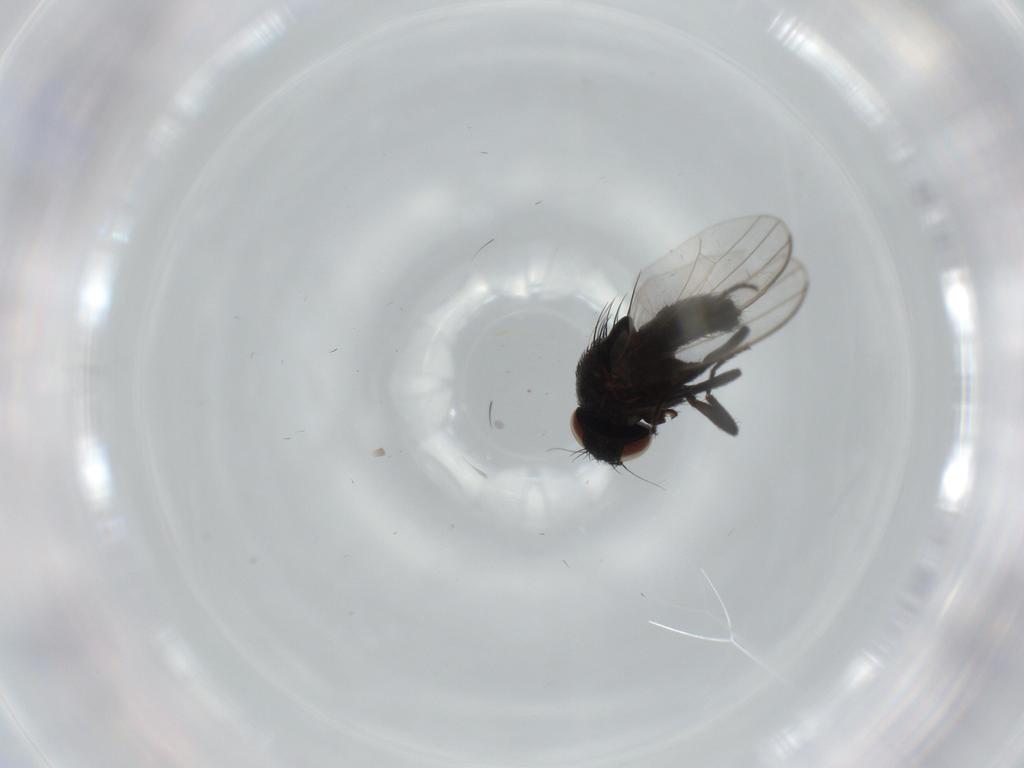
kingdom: Animalia
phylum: Arthropoda
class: Insecta
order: Diptera
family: Milichiidae
